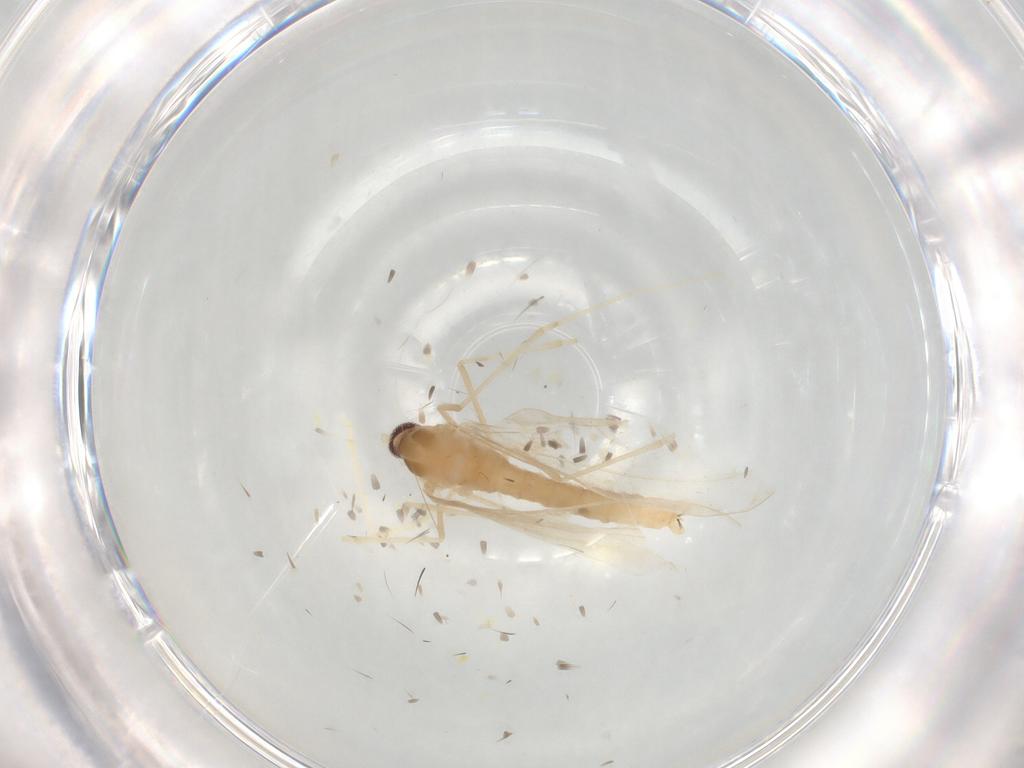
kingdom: Animalia
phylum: Arthropoda
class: Insecta
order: Diptera
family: Cecidomyiidae
